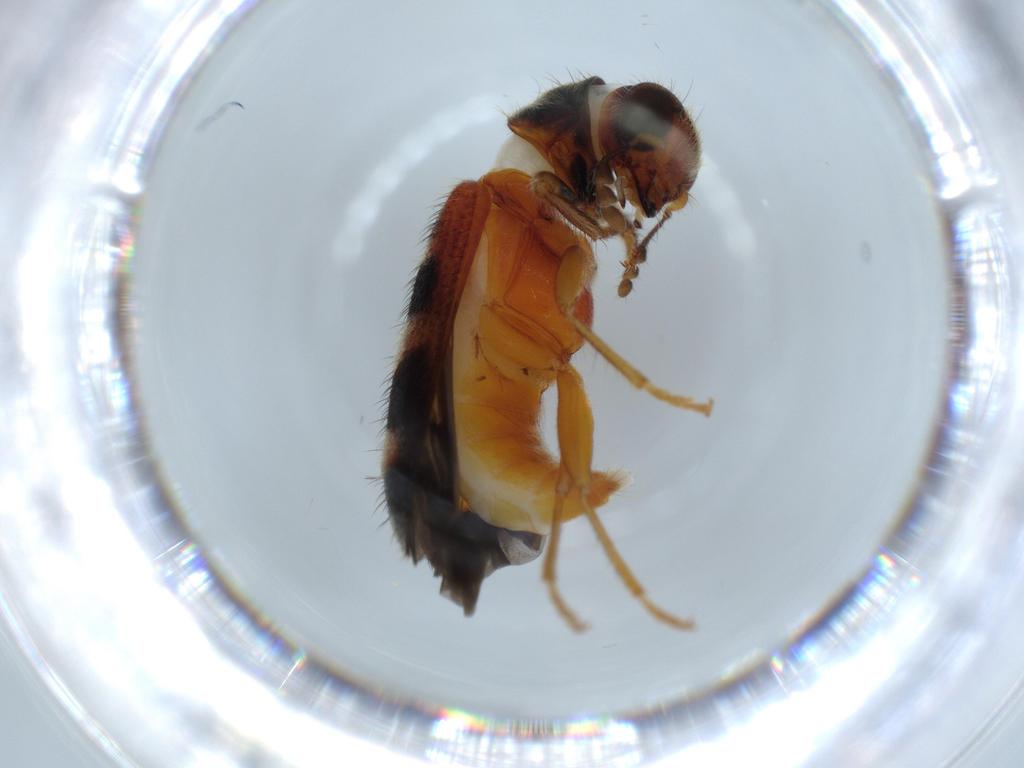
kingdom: Animalia
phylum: Arthropoda
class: Insecta
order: Coleoptera
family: Cleridae
